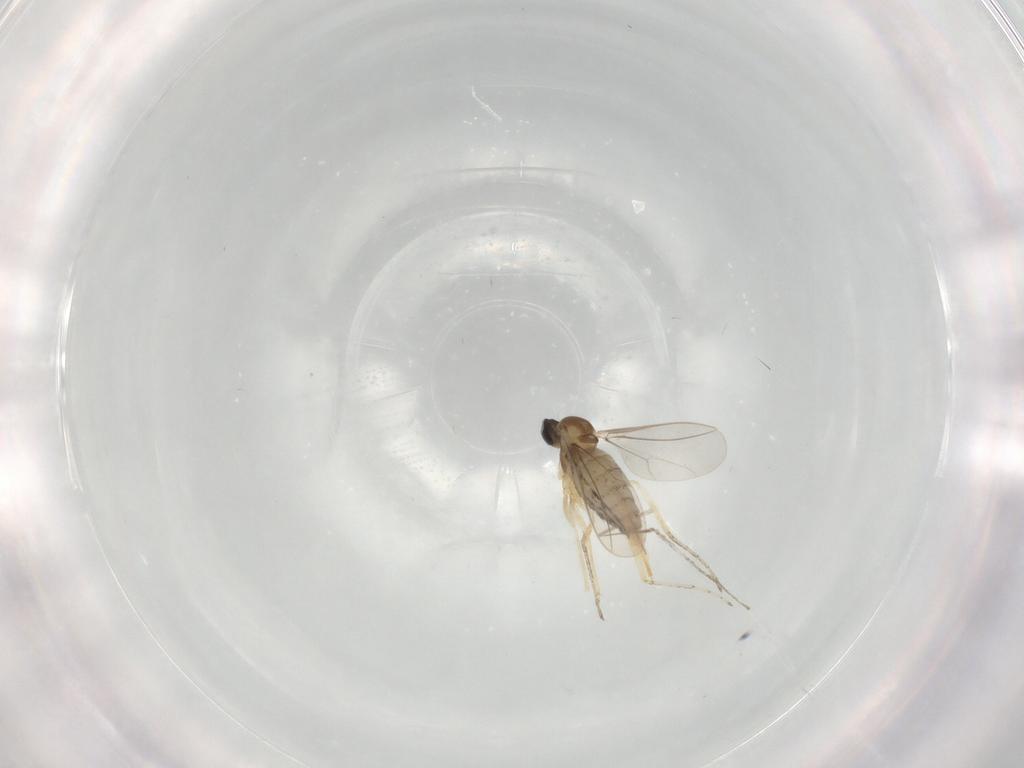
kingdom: Animalia
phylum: Arthropoda
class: Insecta
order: Diptera
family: Cecidomyiidae
